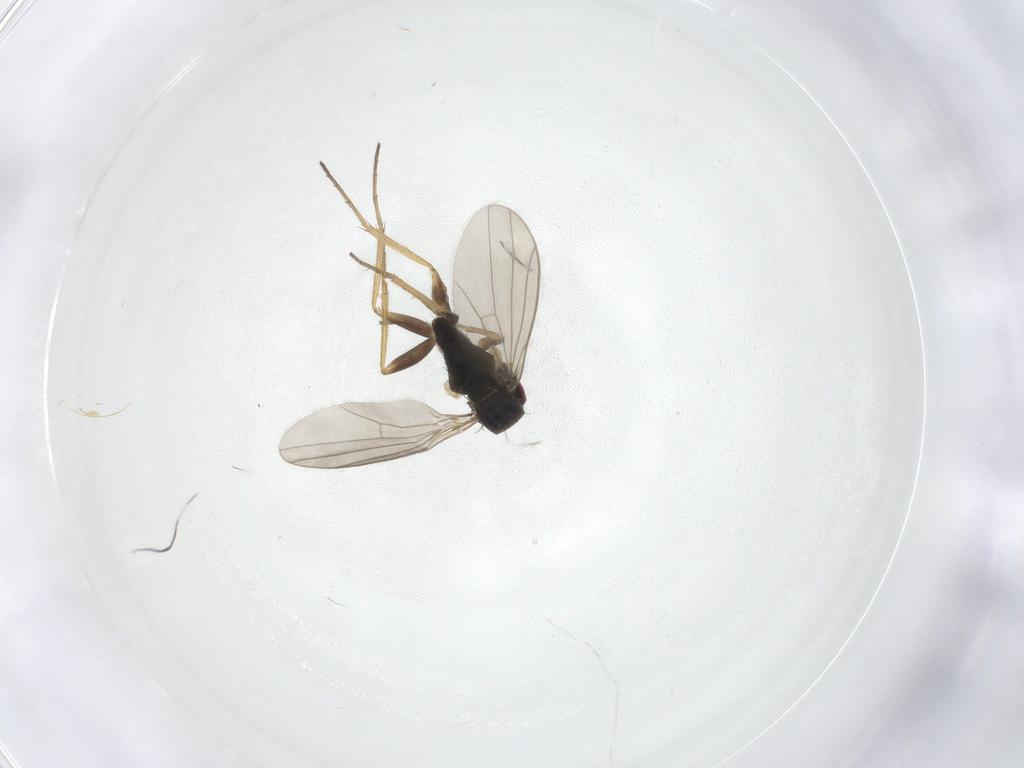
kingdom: Animalia
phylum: Arthropoda
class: Insecta
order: Diptera
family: Dolichopodidae
